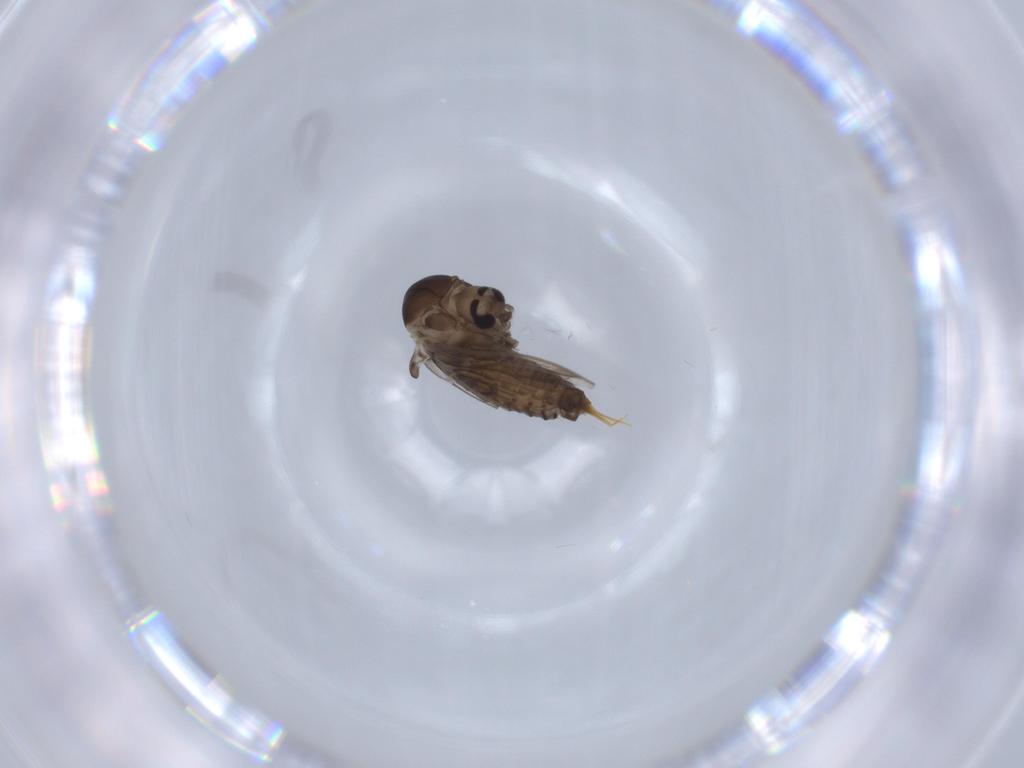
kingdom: Animalia
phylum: Arthropoda
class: Insecta
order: Diptera
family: Psychodidae
